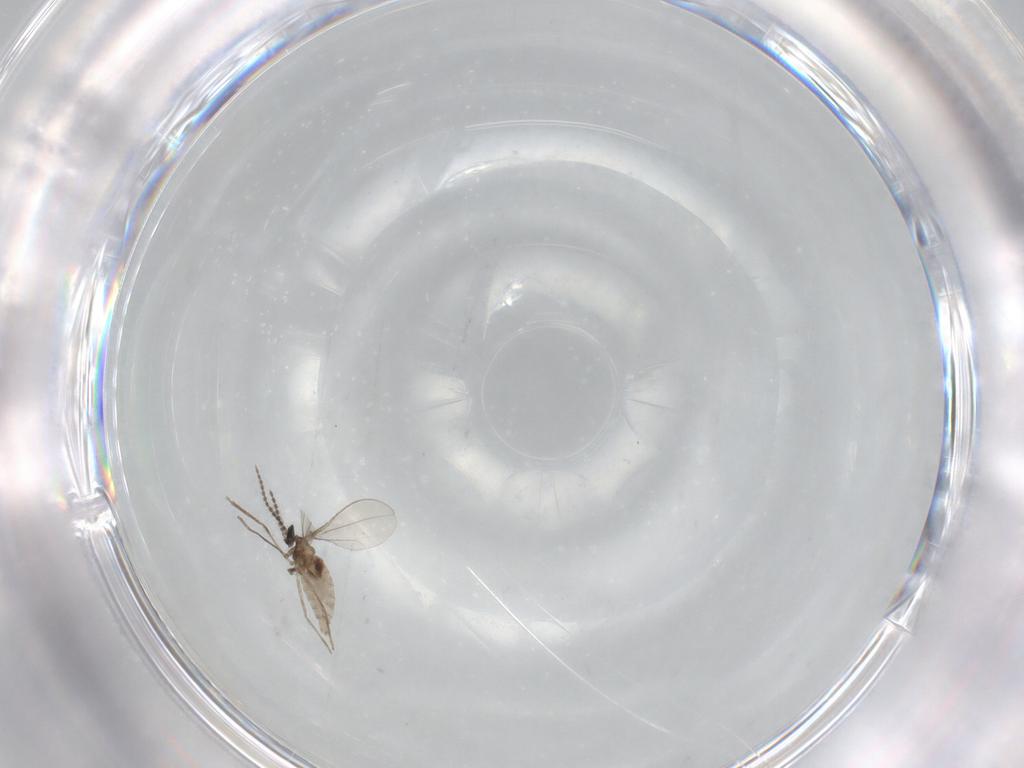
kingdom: Animalia
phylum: Arthropoda
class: Insecta
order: Diptera
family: Cecidomyiidae
